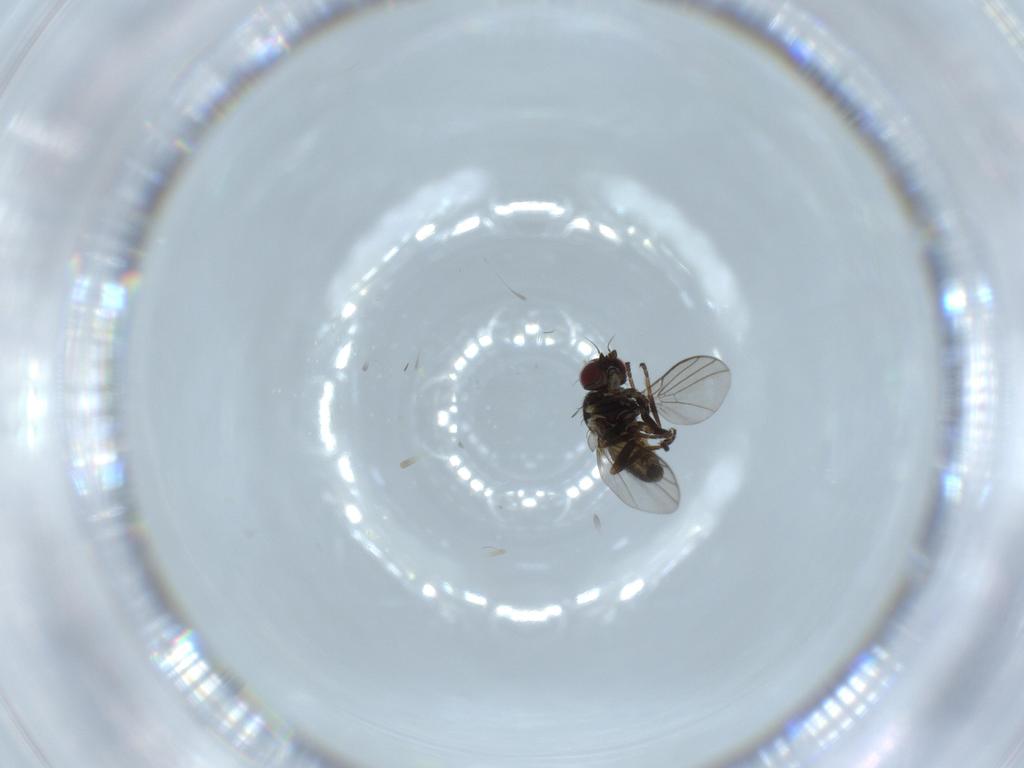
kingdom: Animalia
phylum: Arthropoda
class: Insecta
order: Diptera
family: Agromyzidae
